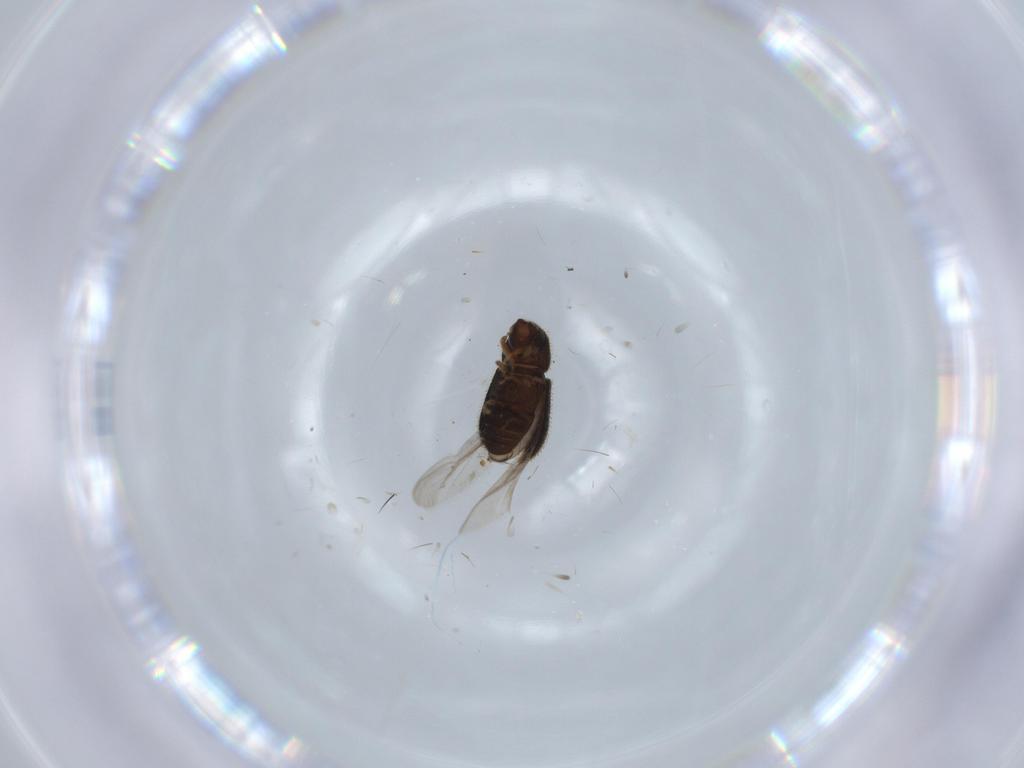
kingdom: Animalia
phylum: Arthropoda
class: Insecta
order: Coleoptera
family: Curculionidae
